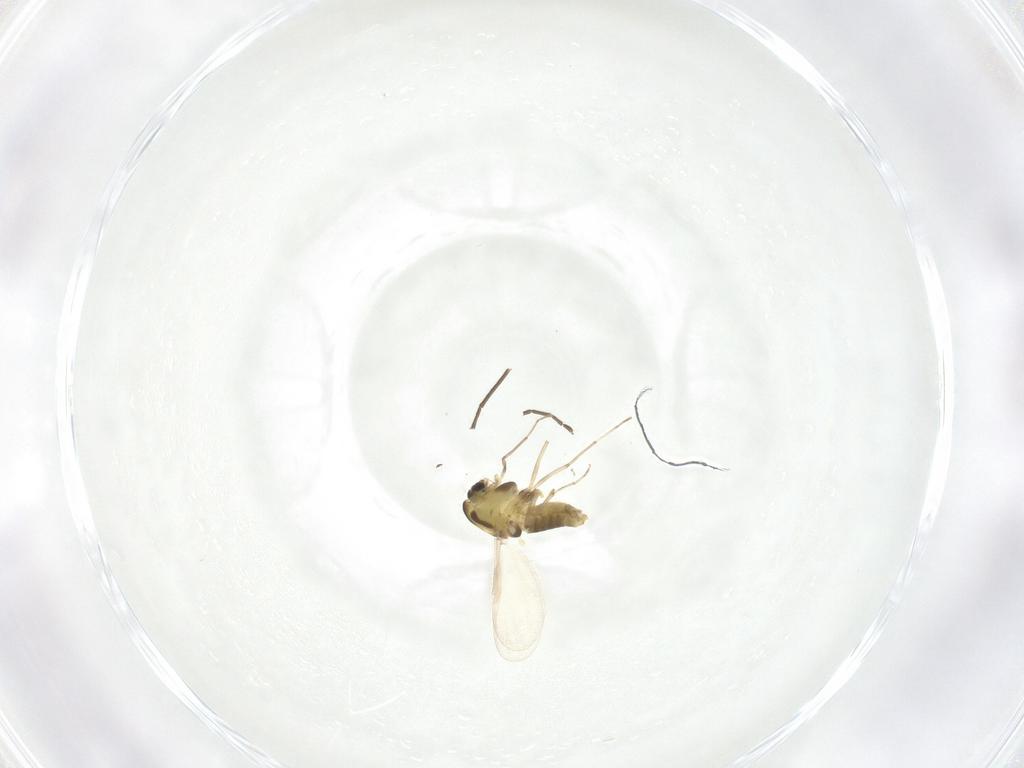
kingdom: Animalia
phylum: Arthropoda
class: Insecta
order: Diptera
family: Chironomidae
